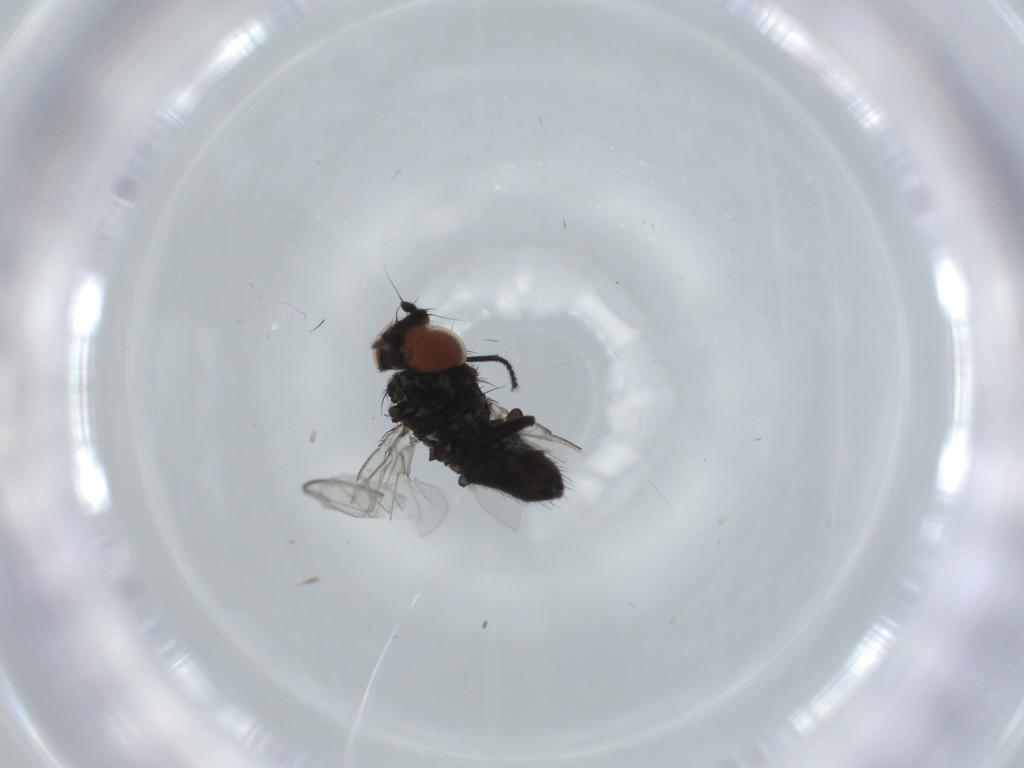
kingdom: Animalia
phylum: Arthropoda
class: Insecta
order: Diptera
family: Milichiidae
